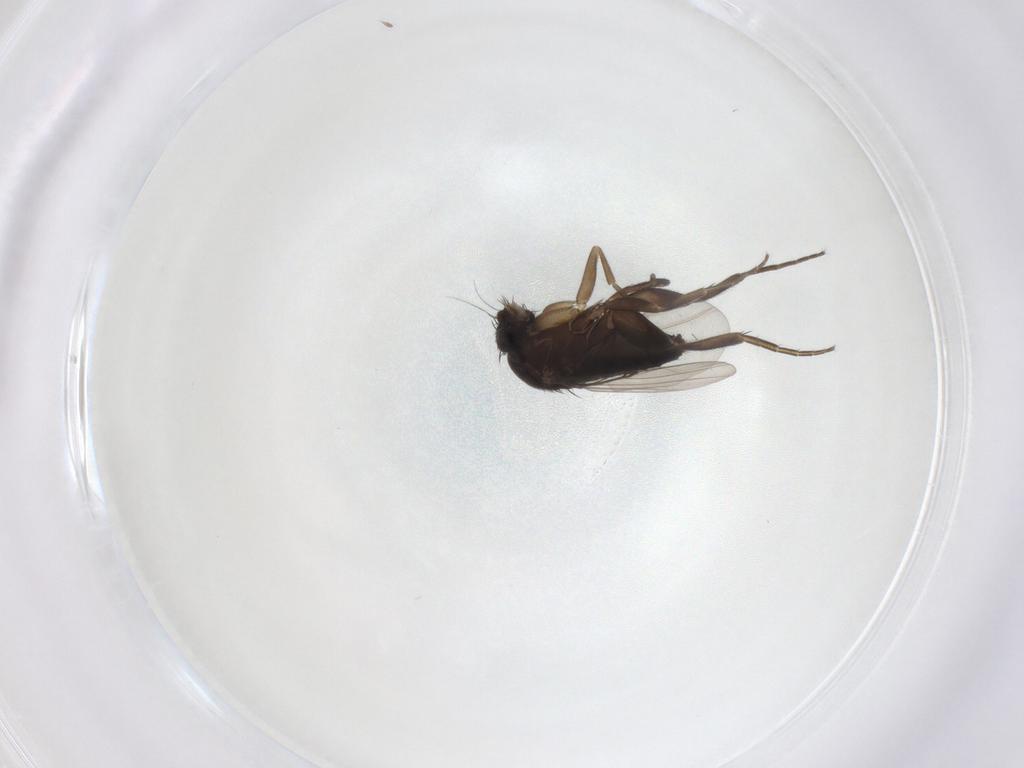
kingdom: Animalia
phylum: Arthropoda
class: Insecta
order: Diptera
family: Phoridae
